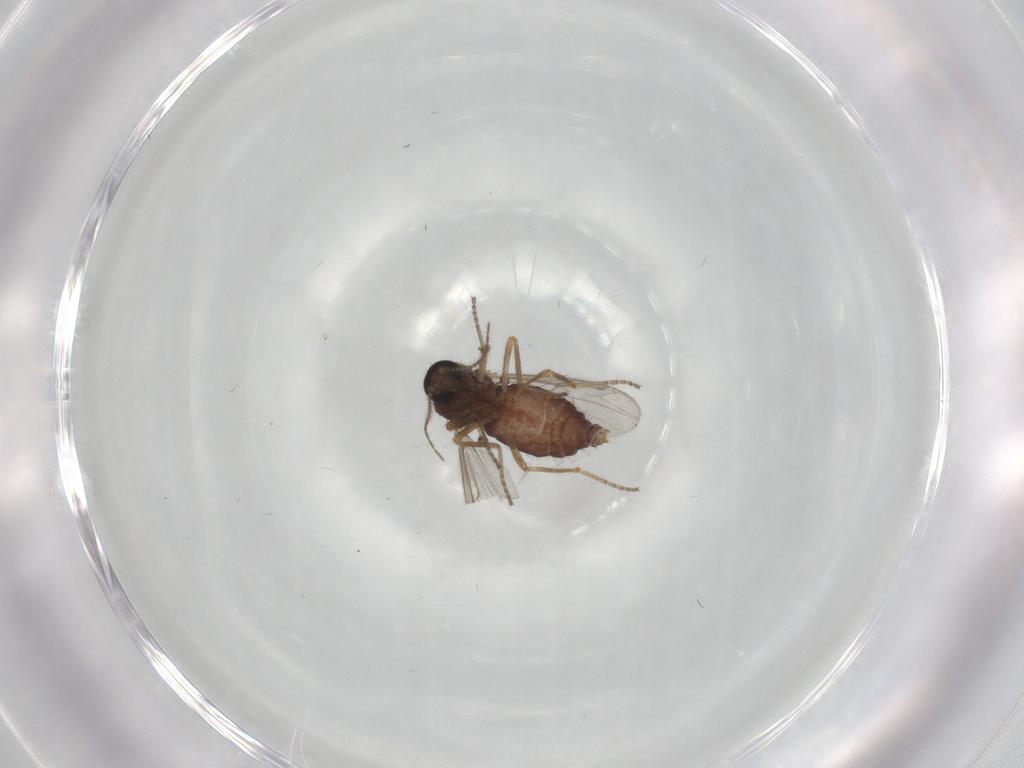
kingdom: Animalia
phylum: Arthropoda
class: Insecta
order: Diptera
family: Ceratopogonidae
